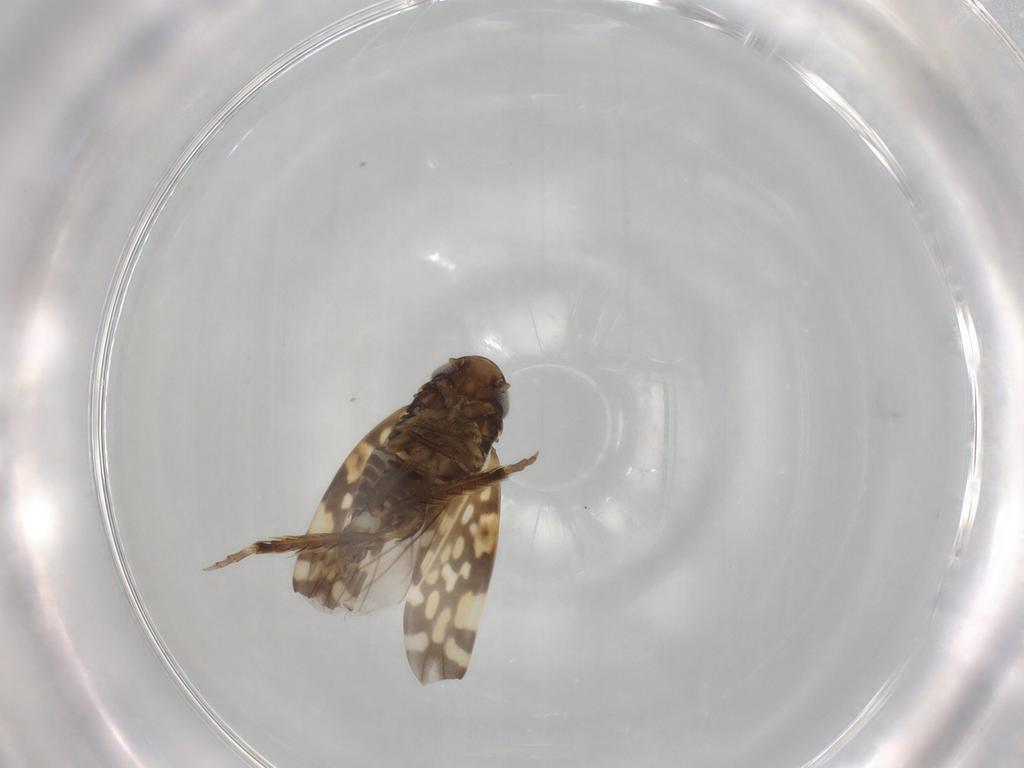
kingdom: Animalia
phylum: Arthropoda
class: Insecta
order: Hemiptera
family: Cicadellidae
